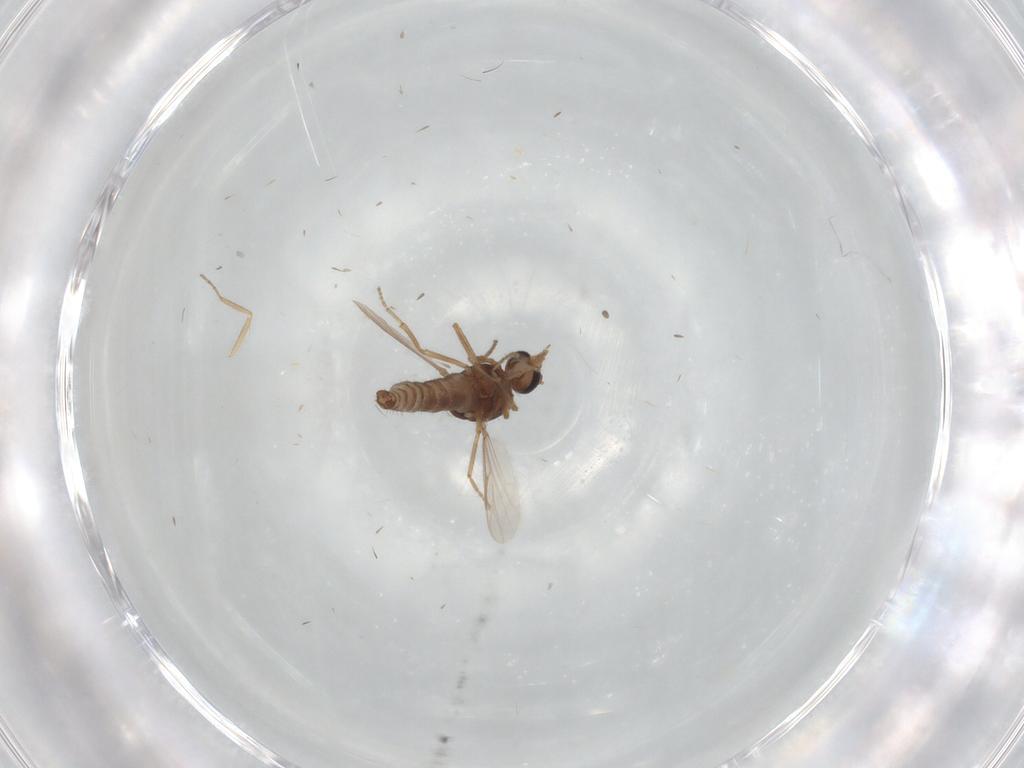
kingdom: Animalia
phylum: Arthropoda
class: Insecta
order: Diptera
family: Ceratopogonidae
